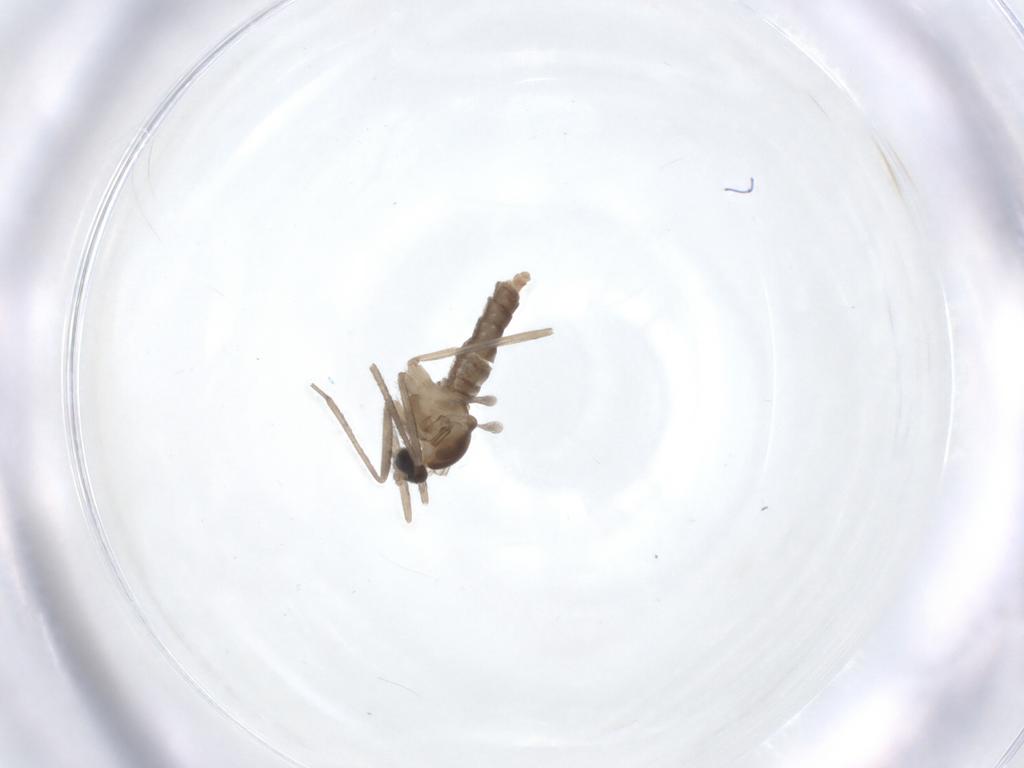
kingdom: Animalia
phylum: Arthropoda
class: Insecta
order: Diptera
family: Cecidomyiidae
